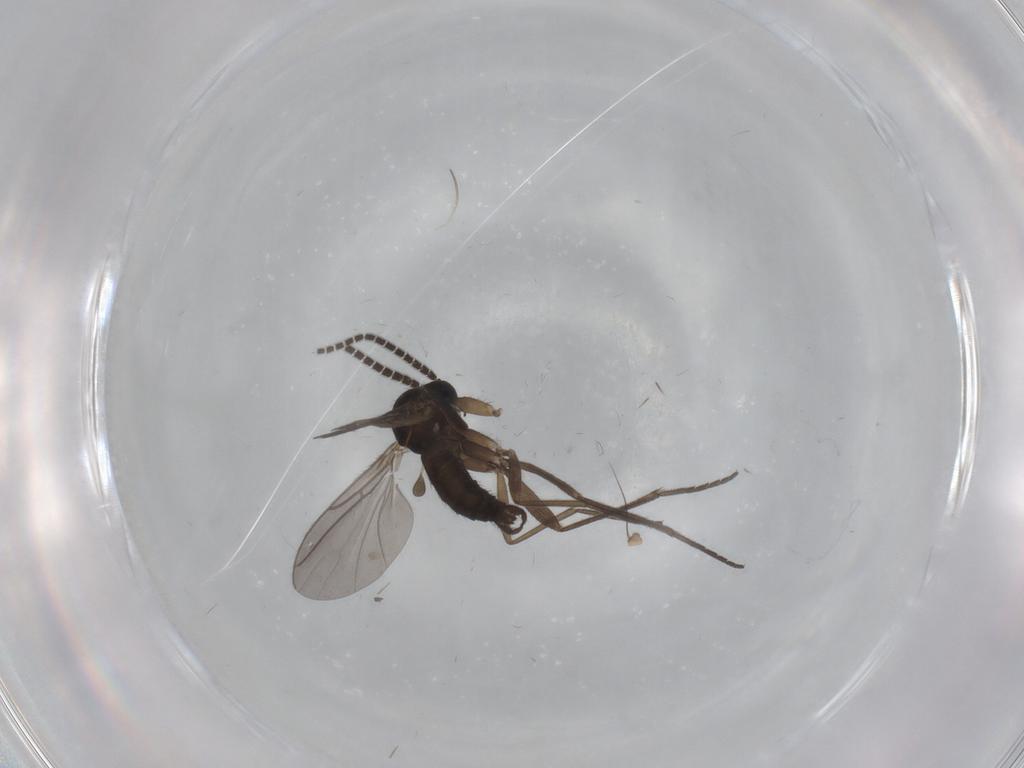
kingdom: Animalia
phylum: Arthropoda
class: Insecta
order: Diptera
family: Sciaridae
